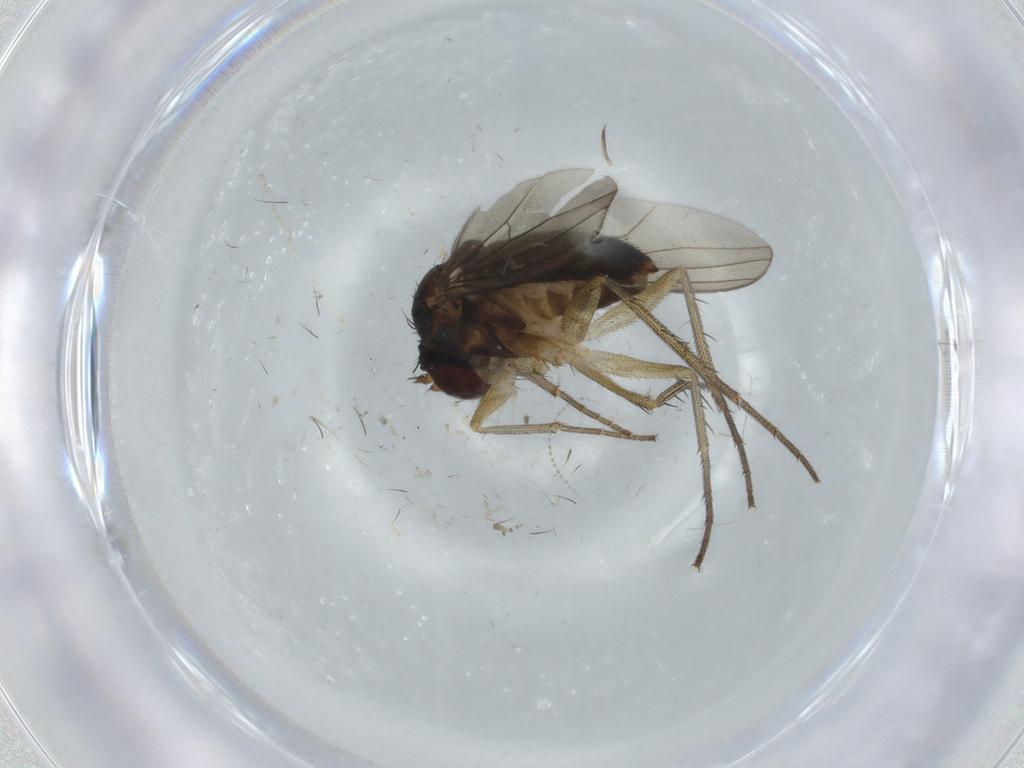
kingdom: Animalia
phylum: Arthropoda
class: Insecta
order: Diptera
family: Dolichopodidae
